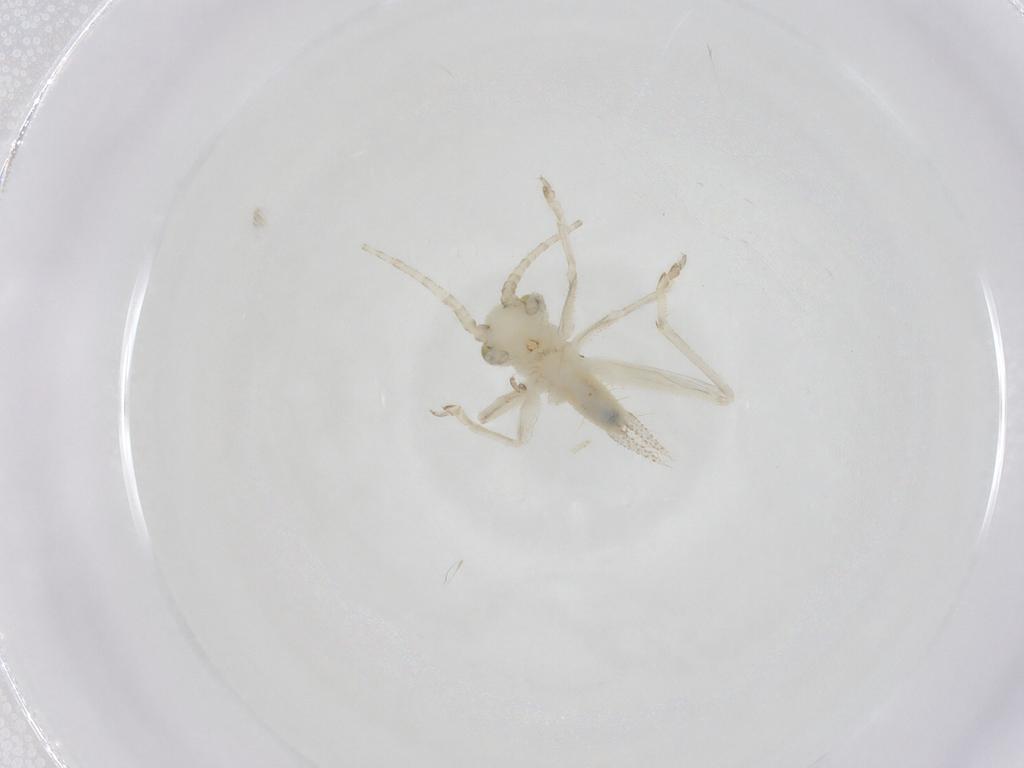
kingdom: Animalia
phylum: Arthropoda
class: Insecta
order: Orthoptera
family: Trigonidiidae
